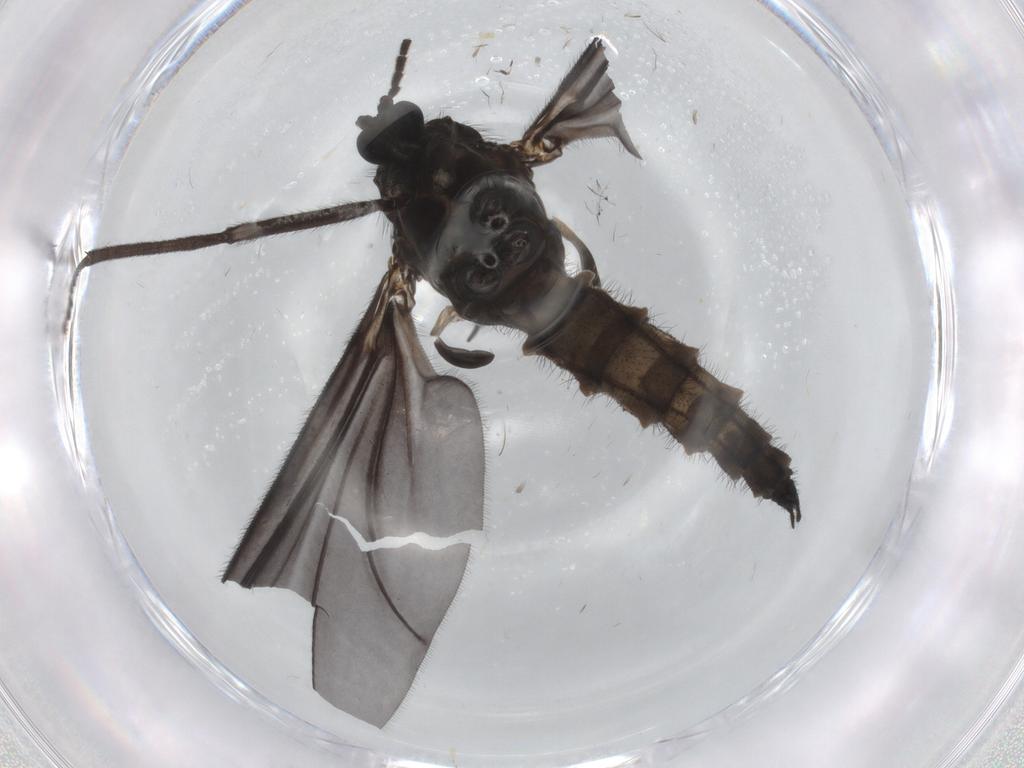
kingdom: Animalia
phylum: Arthropoda
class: Insecta
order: Diptera
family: Sciaridae
